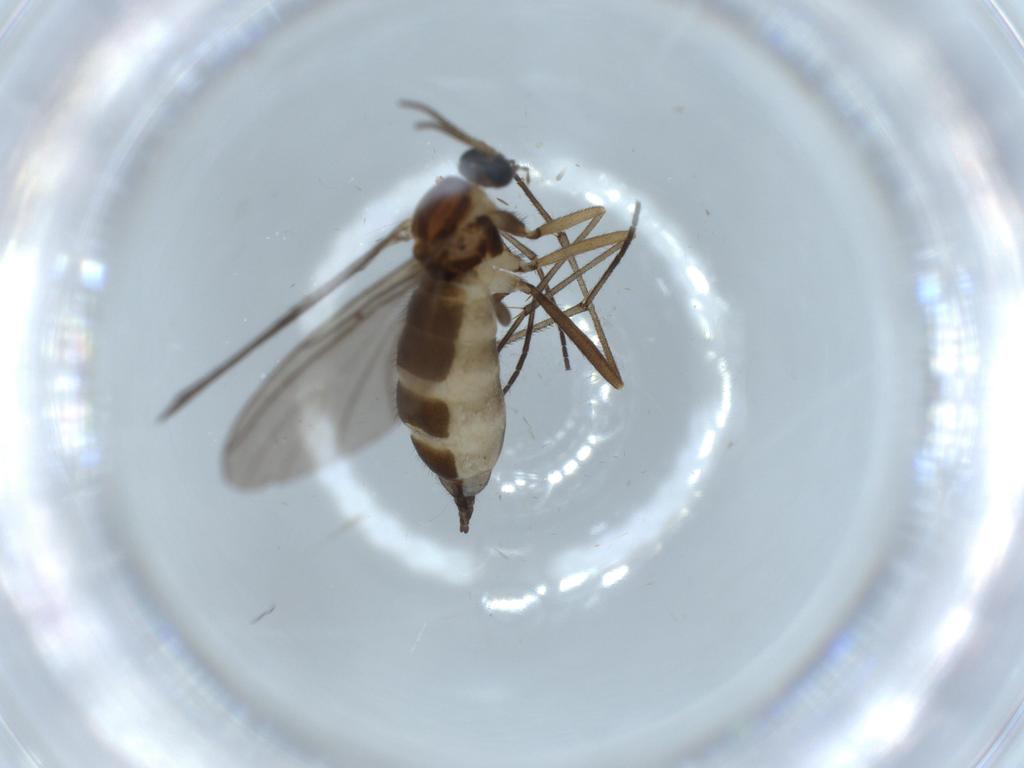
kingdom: Animalia
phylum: Arthropoda
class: Insecta
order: Diptera
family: Sciaridae
